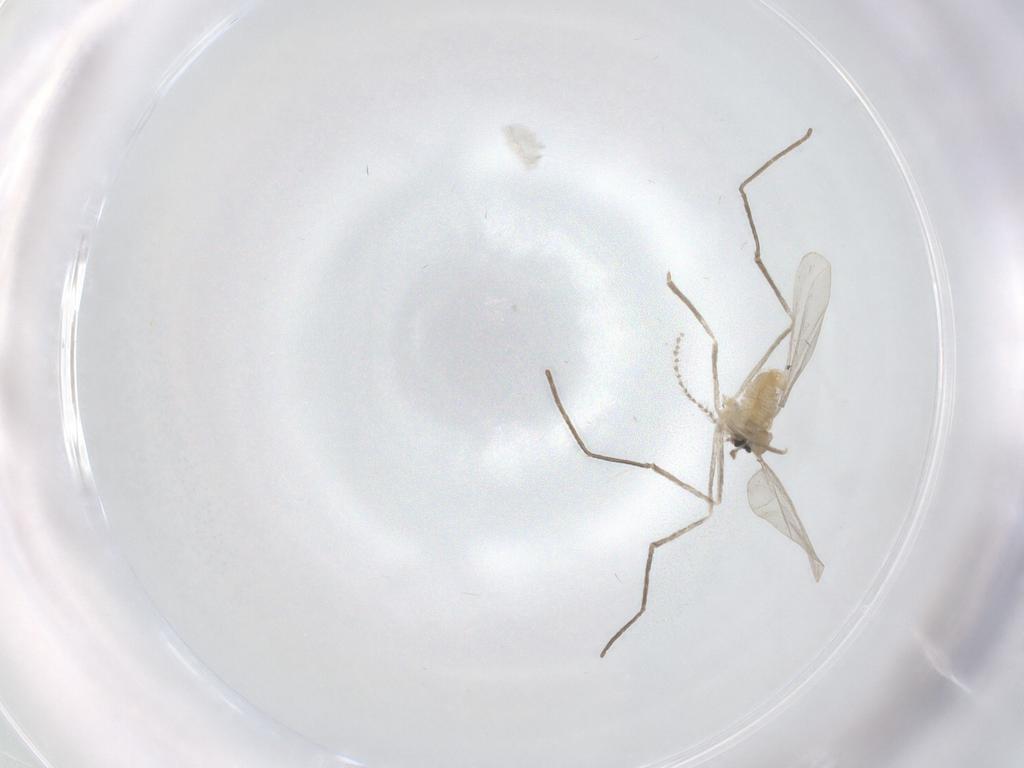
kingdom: Animalia
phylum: Arthropoda
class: Insecta
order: Diptera
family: Cecidomyiidae
